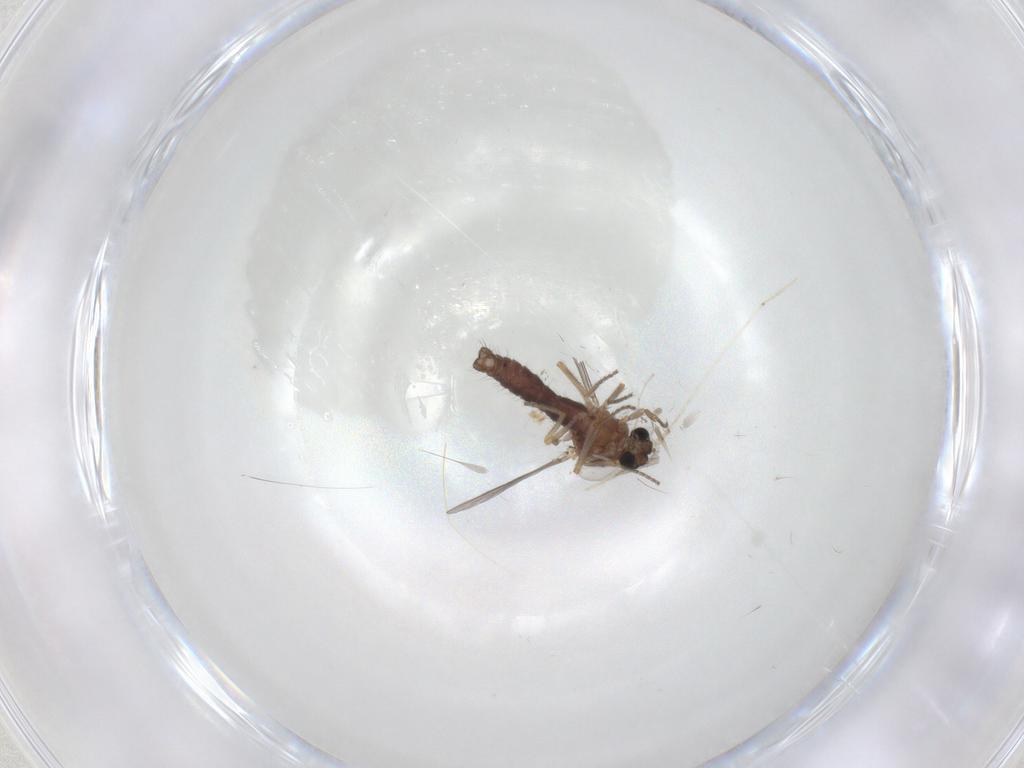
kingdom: Animalia
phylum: Arthropoda
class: Insecta
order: Diptera
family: Ceratopogonidae
